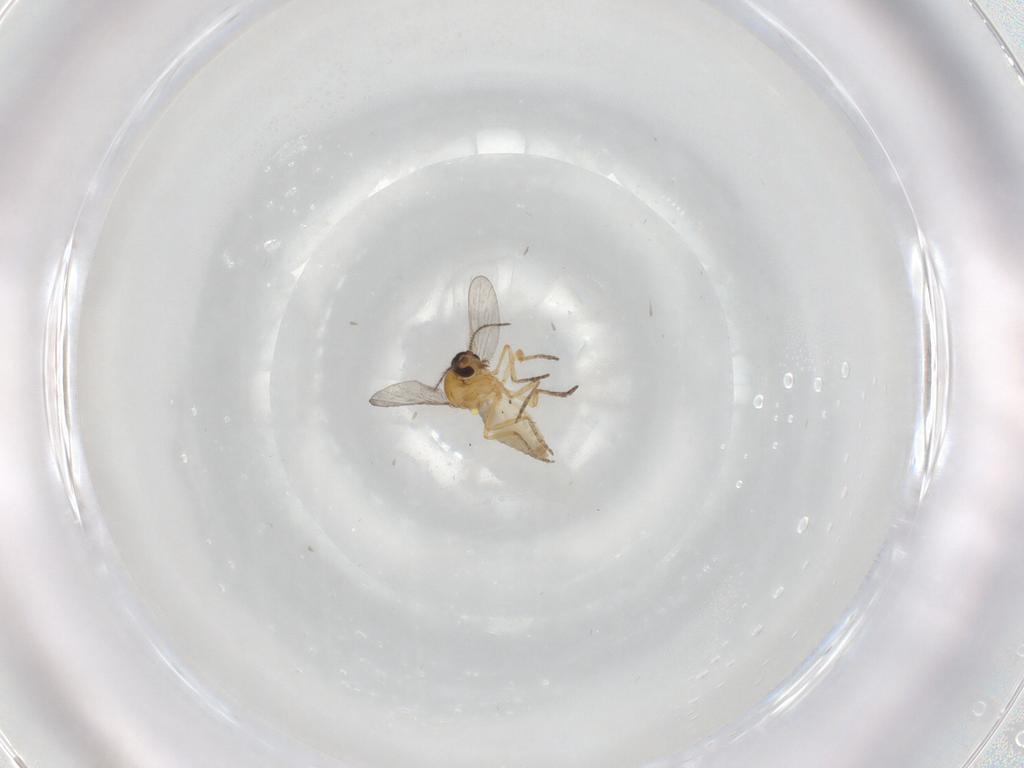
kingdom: Animalia
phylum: Arthropoda
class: Insecta
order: Diptera
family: Ceratopogonidae
